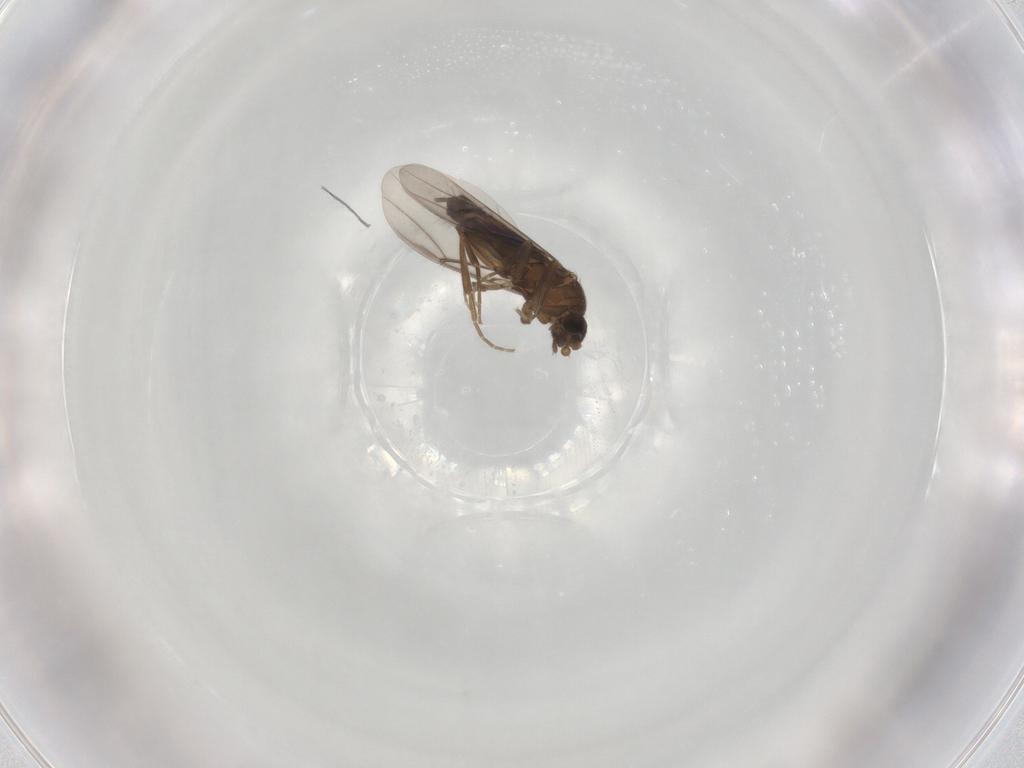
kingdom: Animalia
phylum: Arthropoda
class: Insecta
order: Diptera
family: Phoridae
